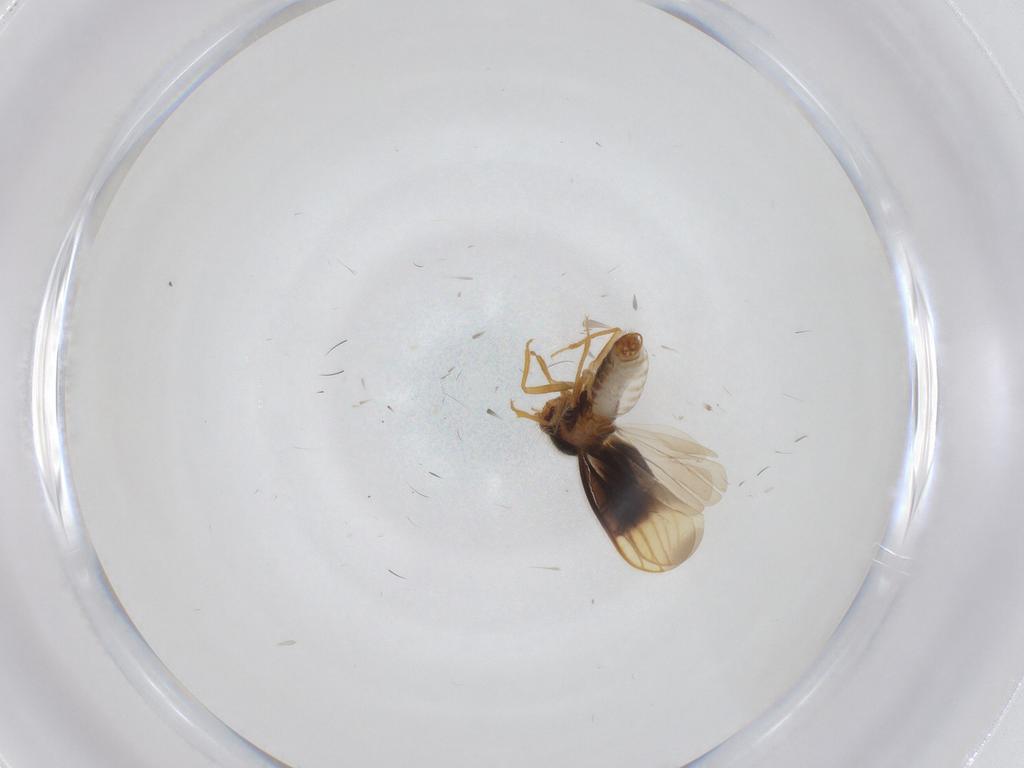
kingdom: Animalia
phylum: Arthropoda
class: Insecta
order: Hemiptera
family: Schizopteridae
